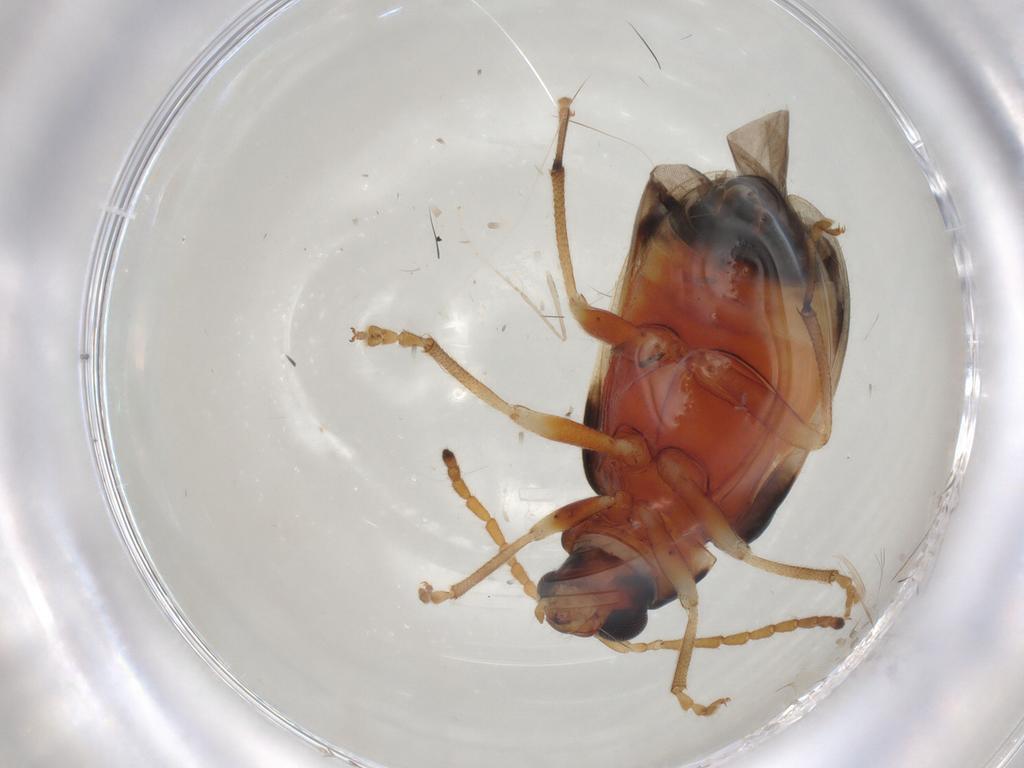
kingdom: Animalia
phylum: Arthropoda
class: Insecta
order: Coleoptera
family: Chrysomelidae
